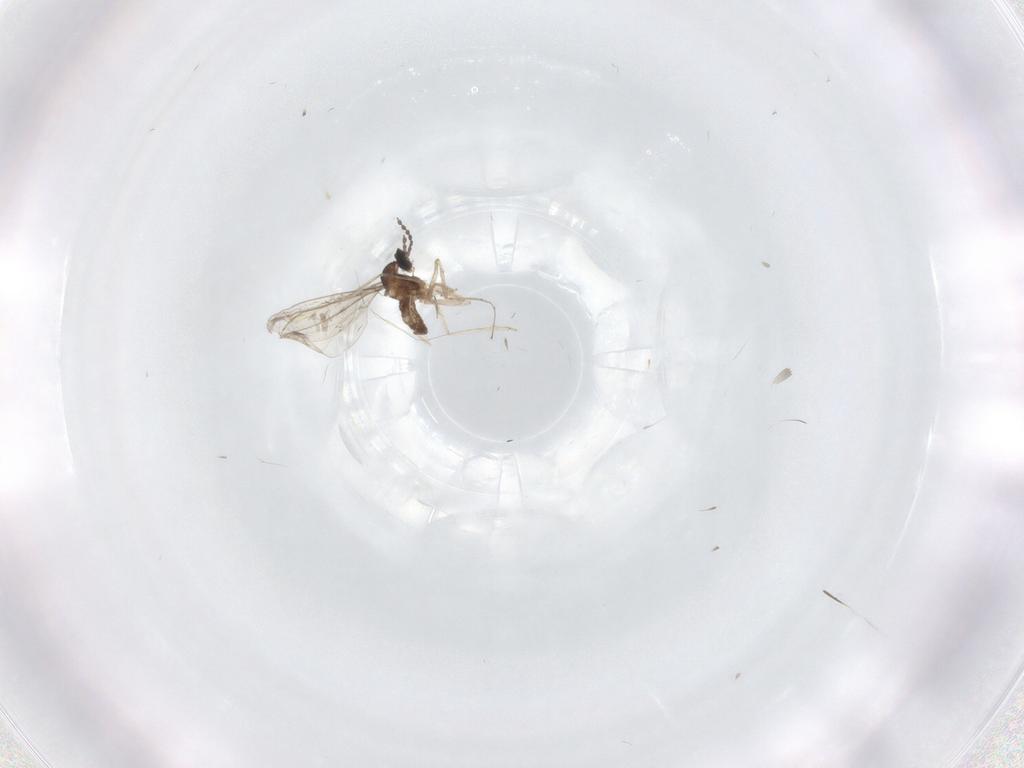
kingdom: Animalia
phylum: Arthropoda
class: Insecta
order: Diptera
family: Cecidomyiidae
